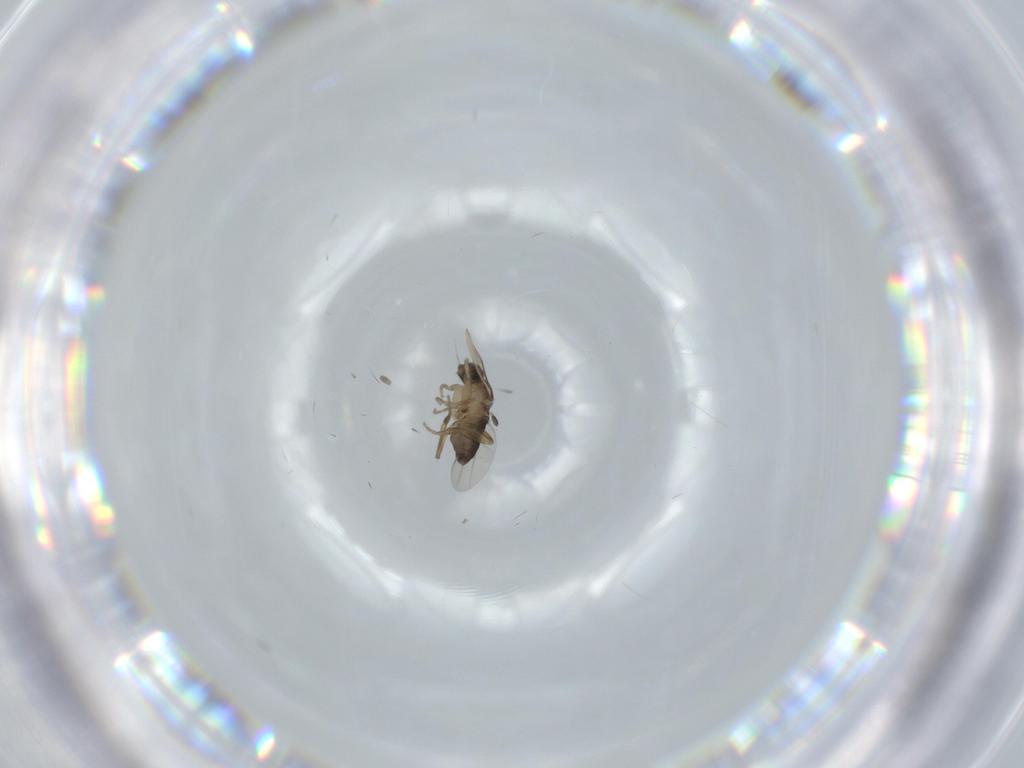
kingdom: Animalia
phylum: Arthropoda
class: Insecta
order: Diptera
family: Phoridae
